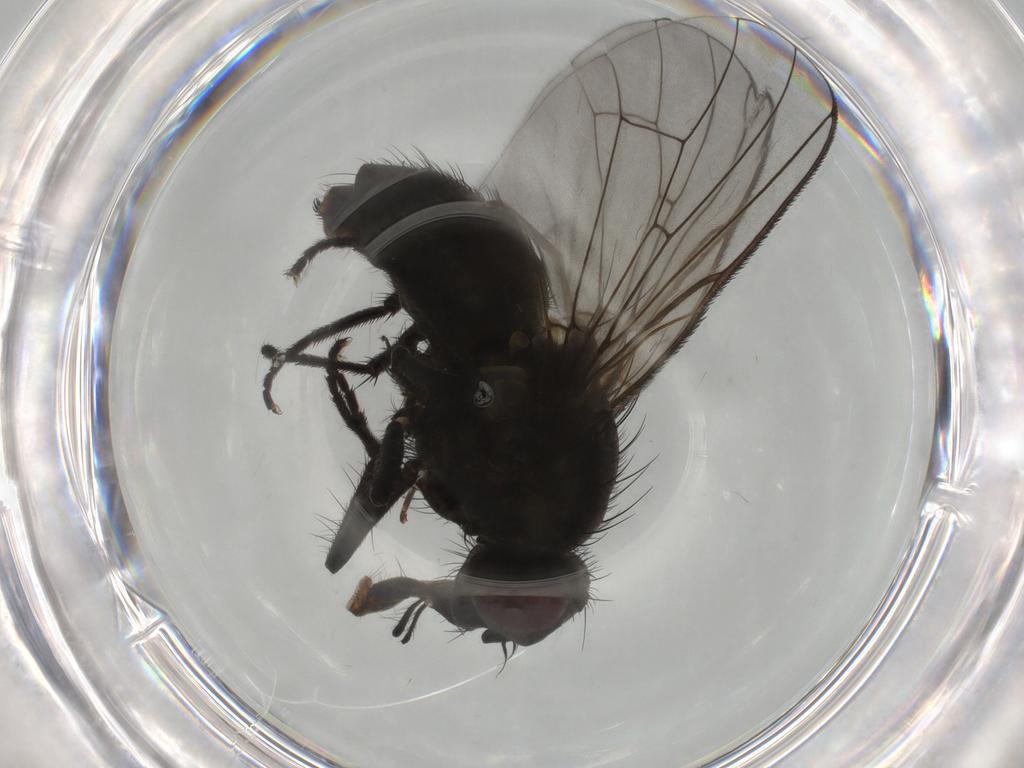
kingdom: Animalia
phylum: Arthropoda
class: Insecta
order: Diptera
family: Muscidae
